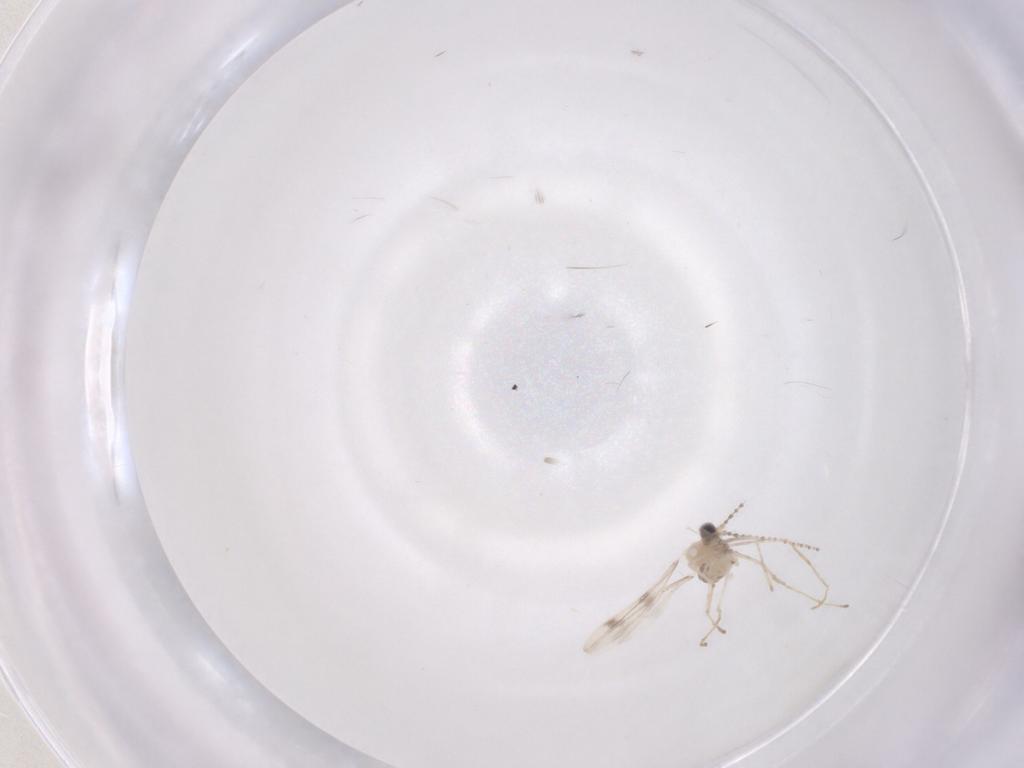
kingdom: Animalia
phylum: Arthropoda
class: Insecta
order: Diptera
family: Cecidomyiidae
